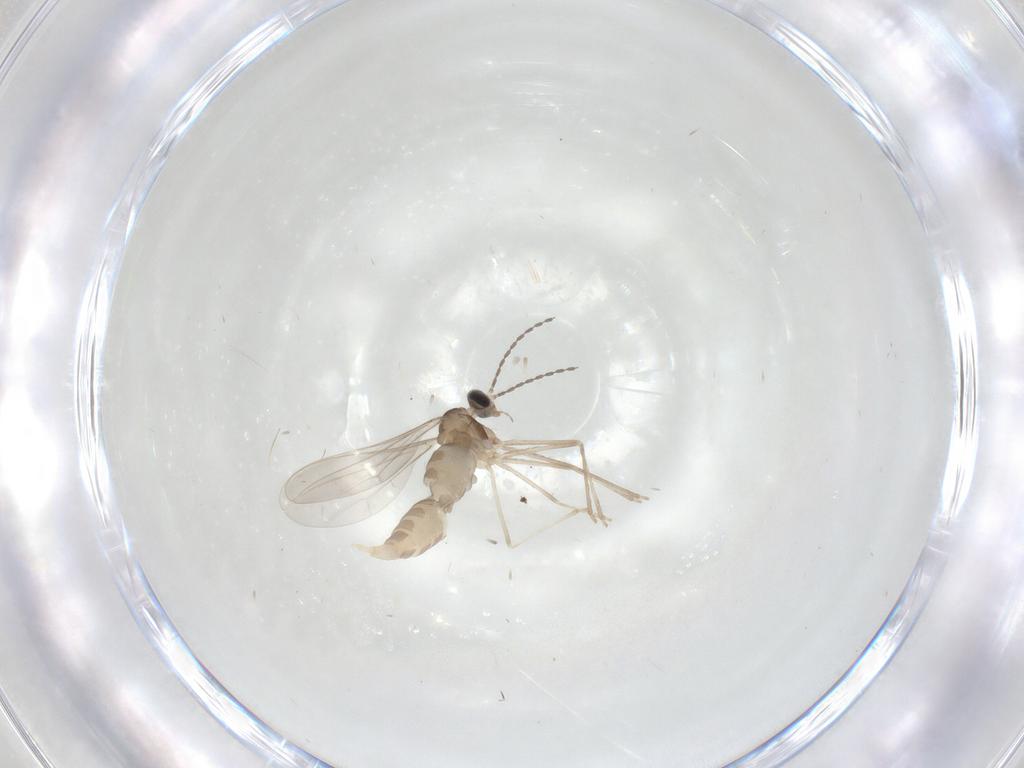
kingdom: Animalia
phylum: Arthropoda
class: Insecta
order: Diptera
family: Cecidomyiidae
